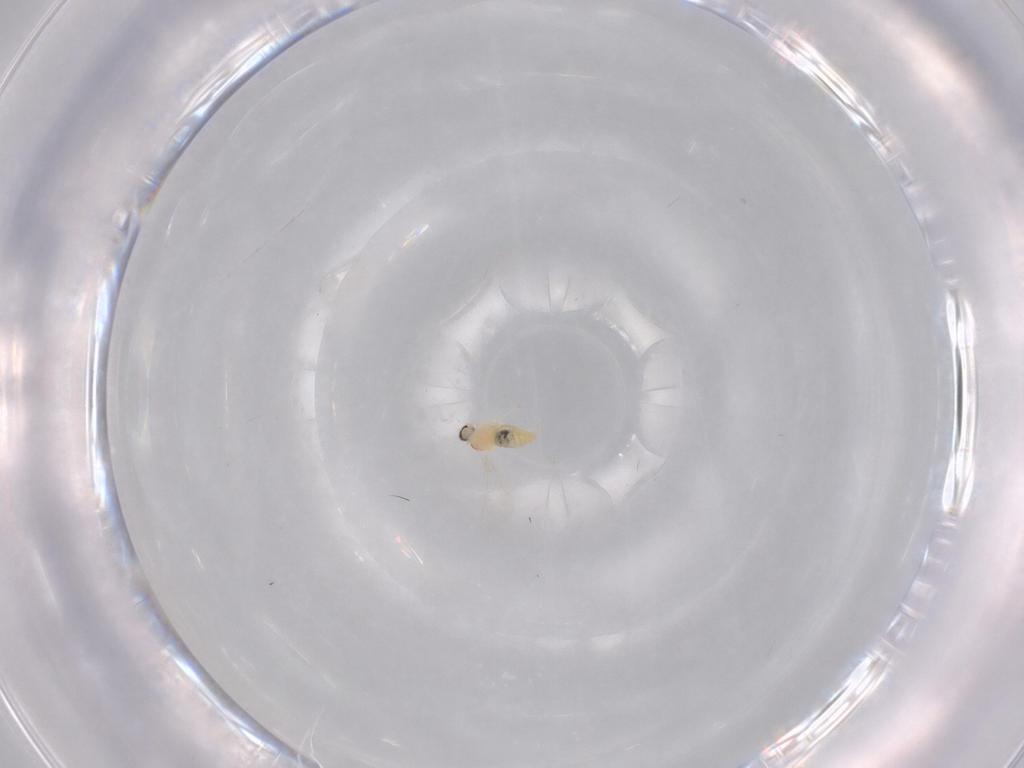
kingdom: Animalia
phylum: Arthropoda
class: Insecta
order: Diptera
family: Cecidomyiidae
